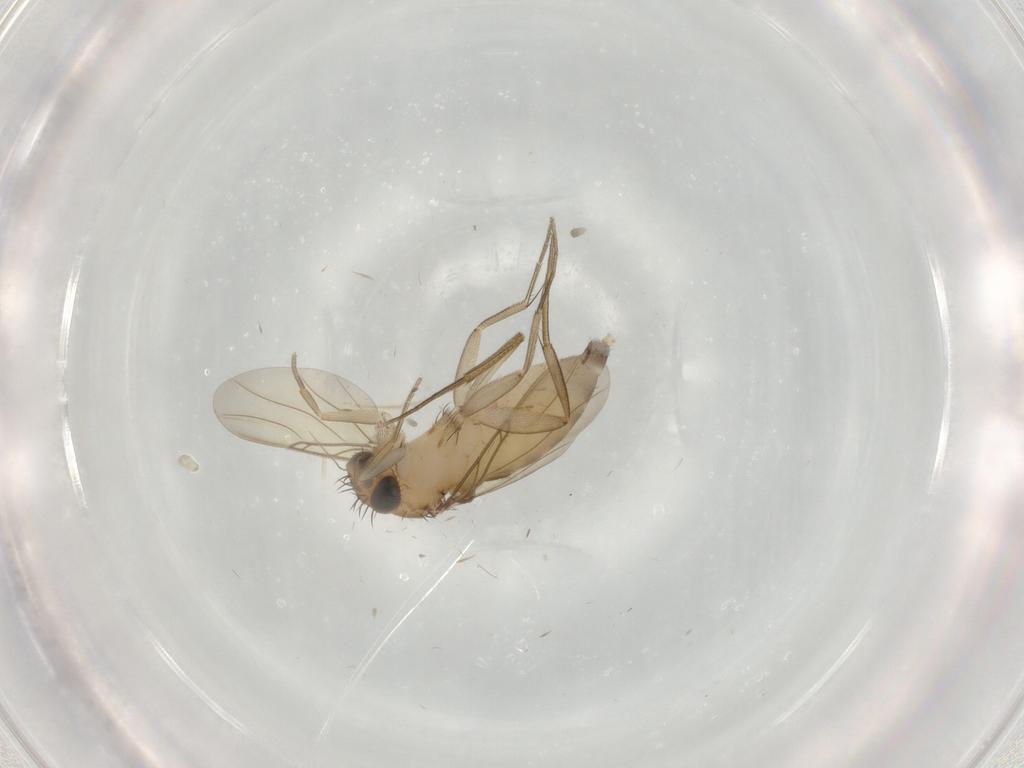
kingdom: Animalia
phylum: Arthropoda
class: Insecta
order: Diptera
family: Phoridae
